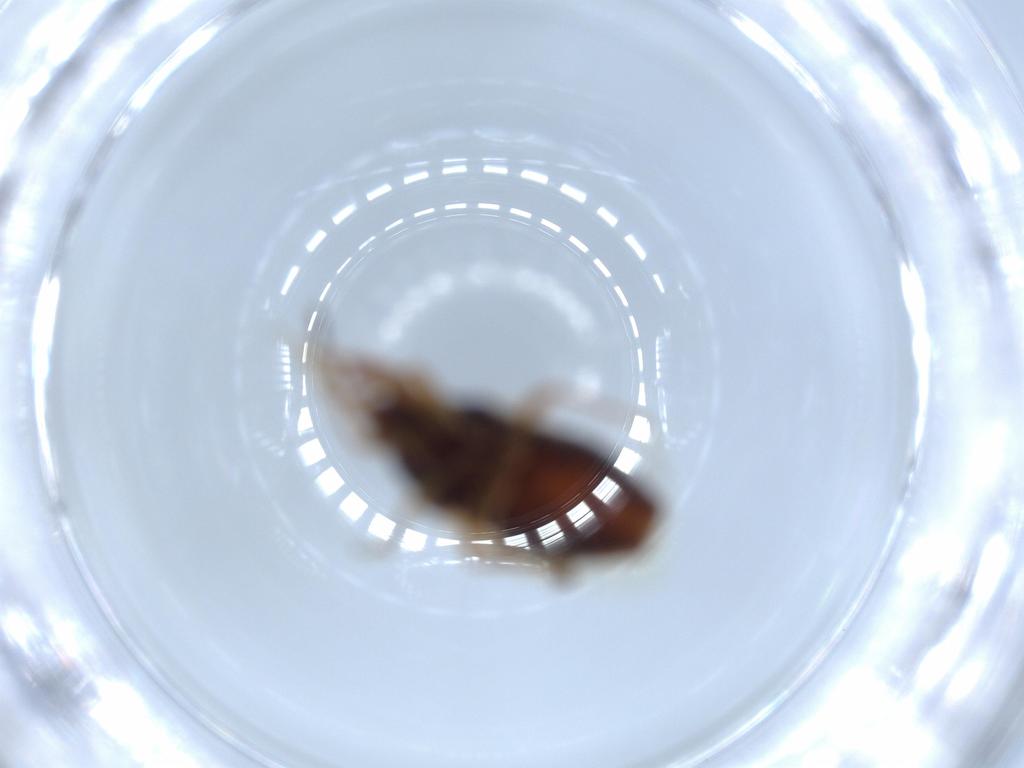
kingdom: Animalia
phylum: Arthropoda
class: Insecta
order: Hemiptera
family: Rhyparochromidae
